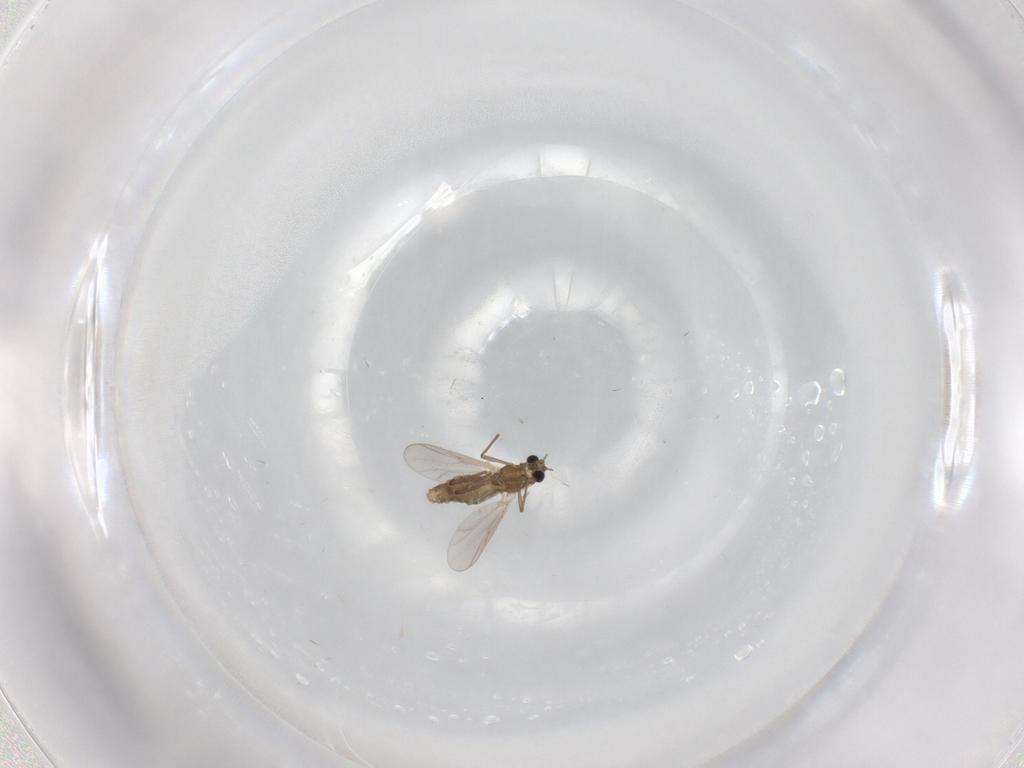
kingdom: Animalia
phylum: Arthropoda
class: Insecta
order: Diptera
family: Chironomidae
